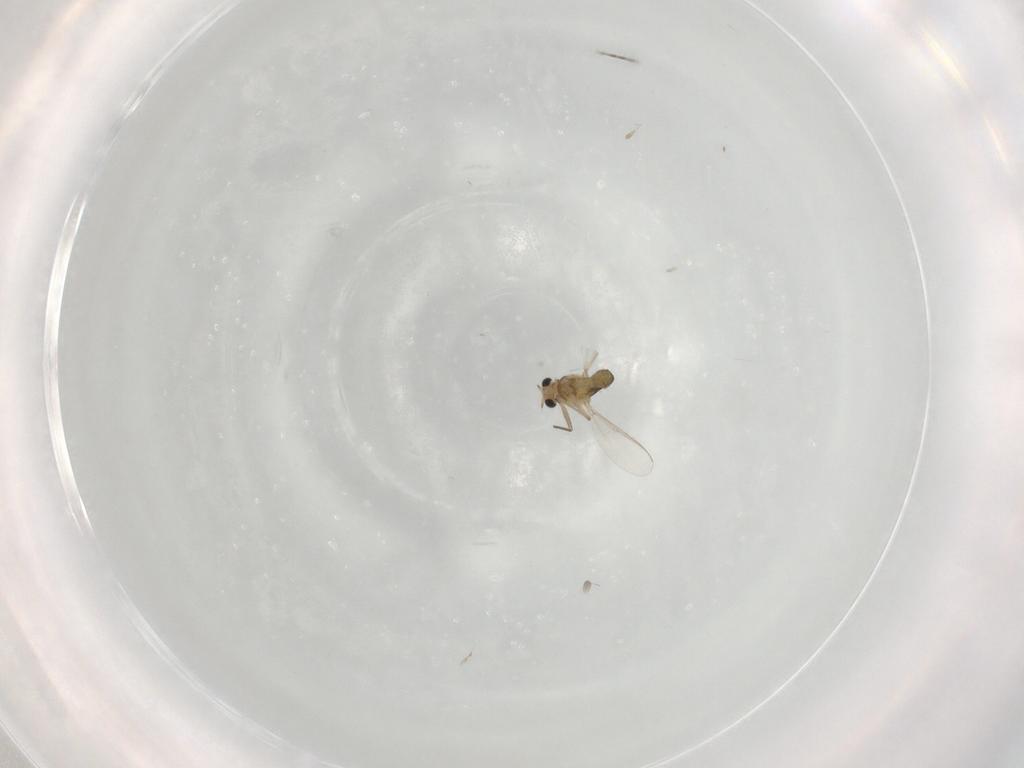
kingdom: Animalia
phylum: Arthropoda
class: Insecta
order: Diptera
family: Chironomidae
